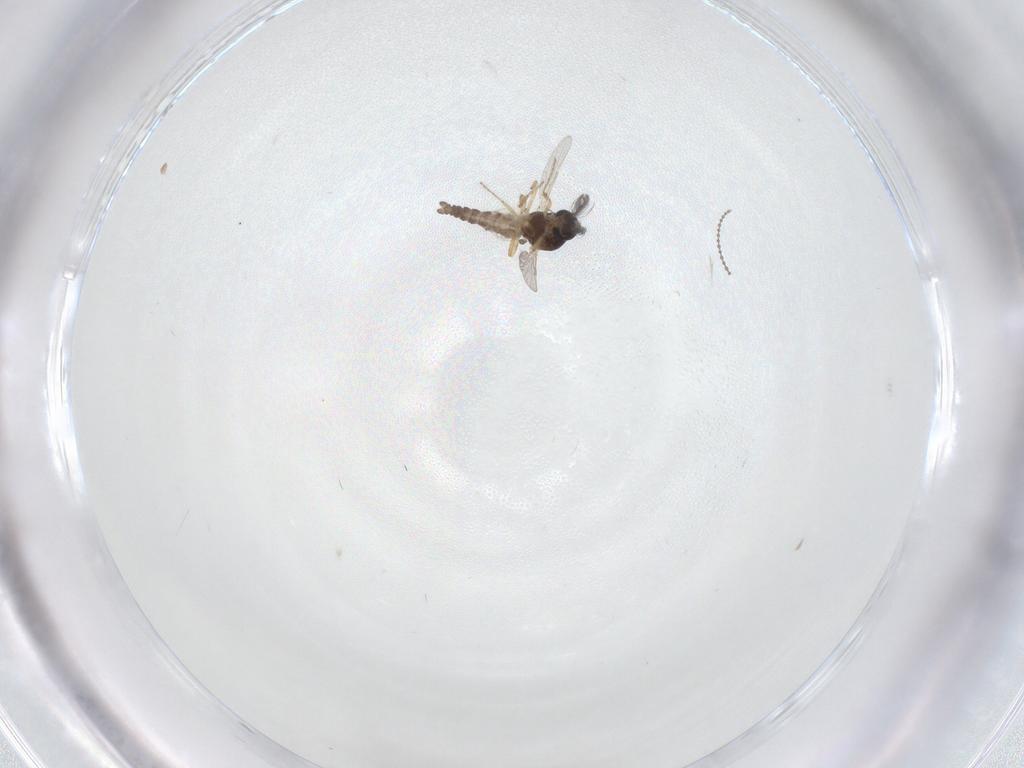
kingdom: Animalia
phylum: Arthropoda
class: Insecta
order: Diptera
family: Ceratopogonidae
